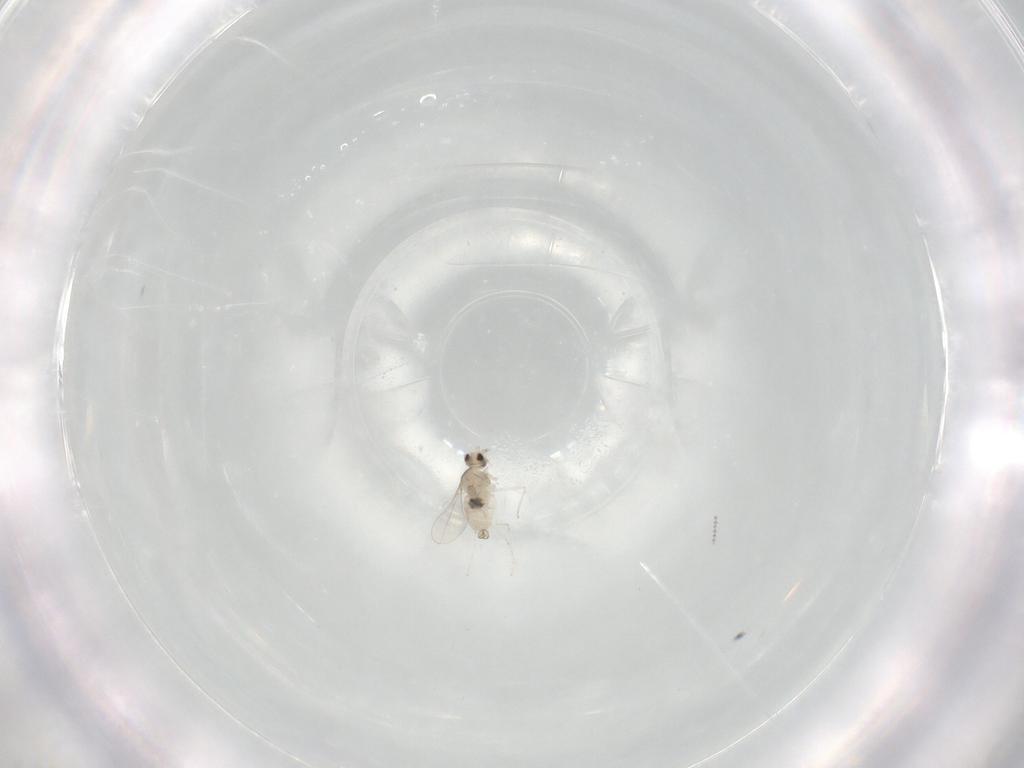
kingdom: Animalia
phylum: Arthropoda
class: Insecta
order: Diptera
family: Cecidomyiidae
